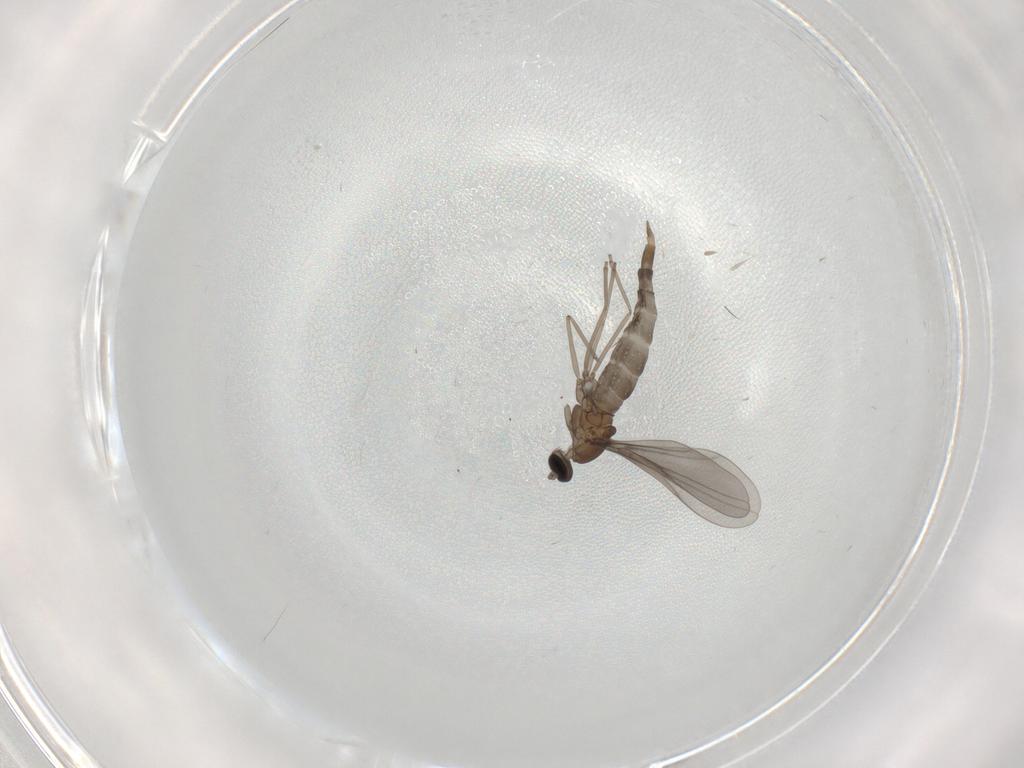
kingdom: Animalia
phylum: Arthropoda
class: Insecta
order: Diptera
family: Cecidomyiidae
